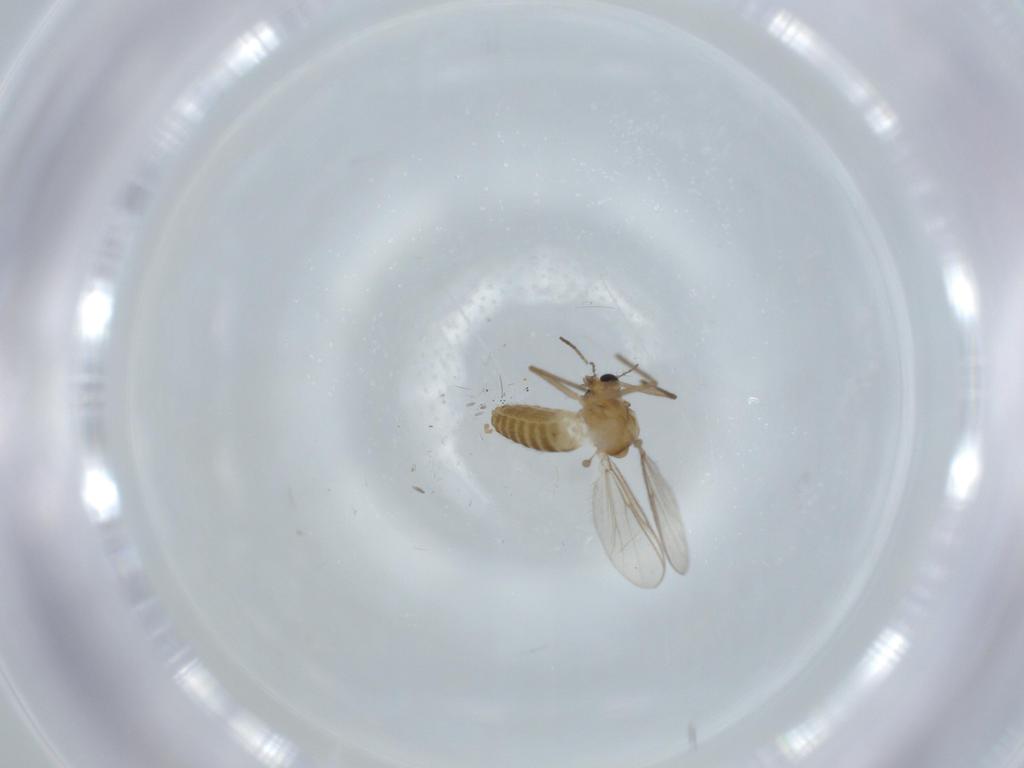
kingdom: Animalia
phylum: Arthropoda
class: Insecta
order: Diptera
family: Chironomidae
